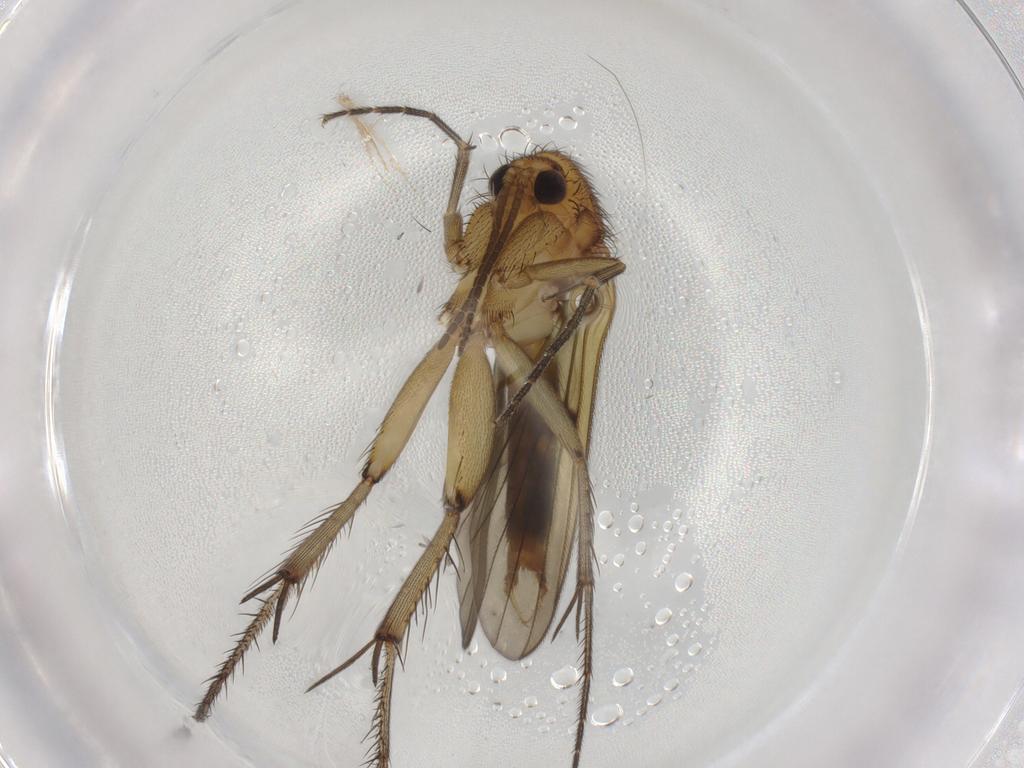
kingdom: Animalia
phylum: Arthropoda
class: Insecta
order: Diptera
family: Mycetophilidae
